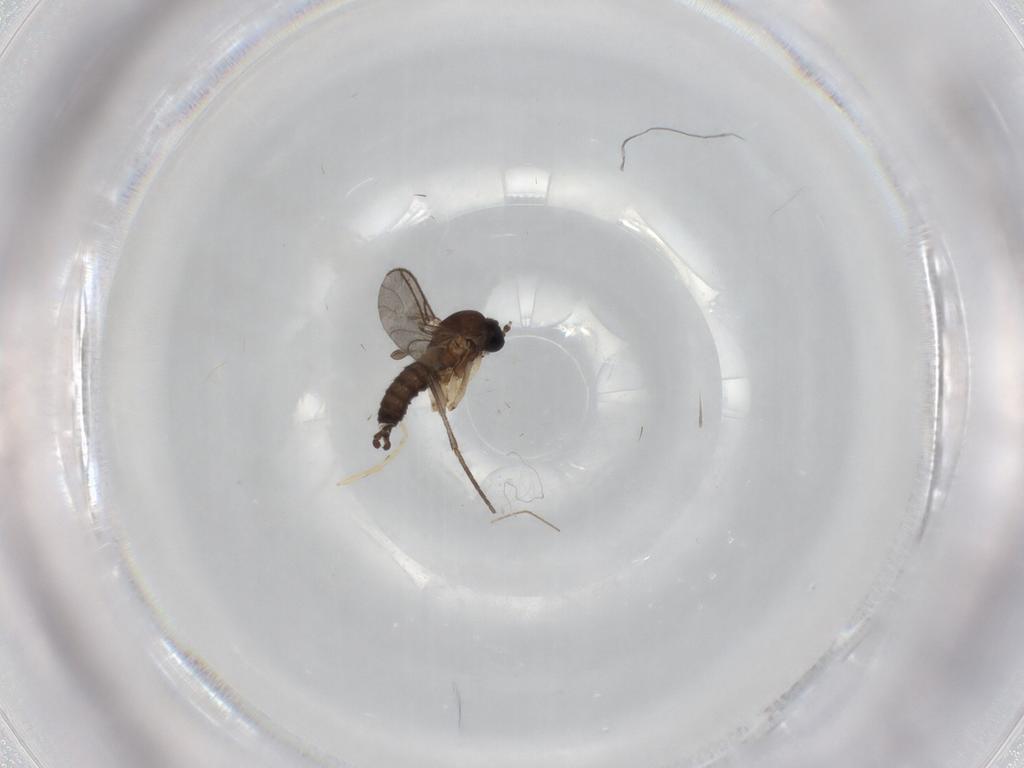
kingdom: Animalia
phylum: Arthropoda
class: Insecta
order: Diptera
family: Sciaridae
